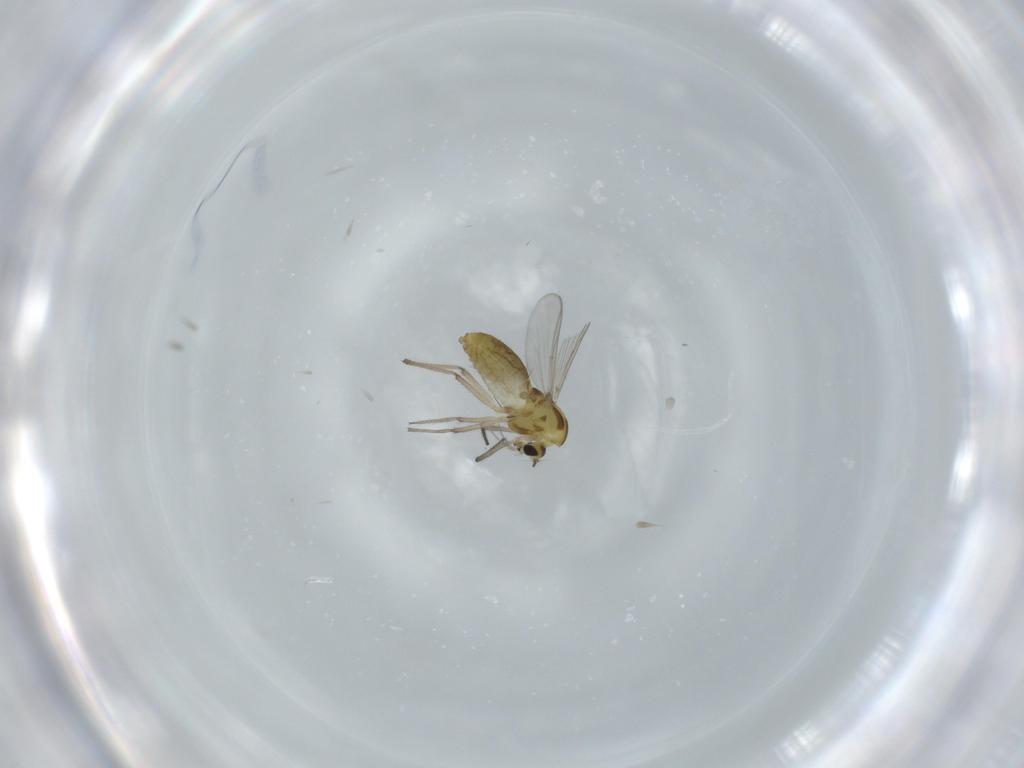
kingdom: Animalia
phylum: Arthropoda
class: Insecta
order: Diptera
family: Chironomidae
